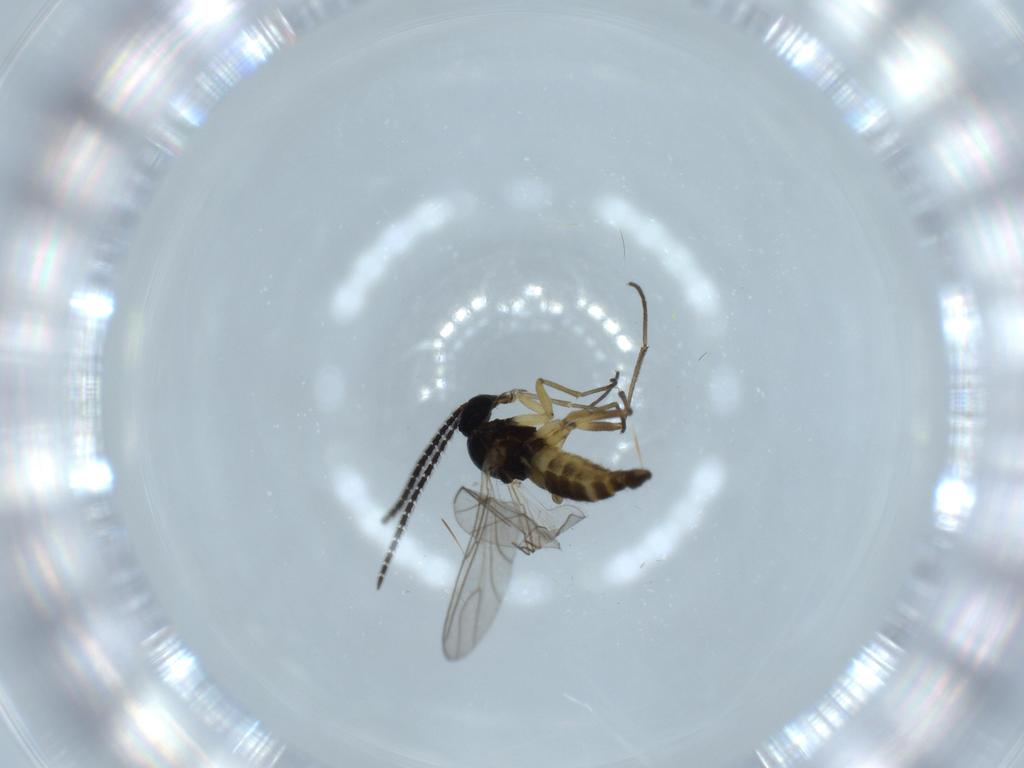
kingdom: Animalia
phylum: Arthropoda
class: Insecta
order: Diptera
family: Sciaridae
